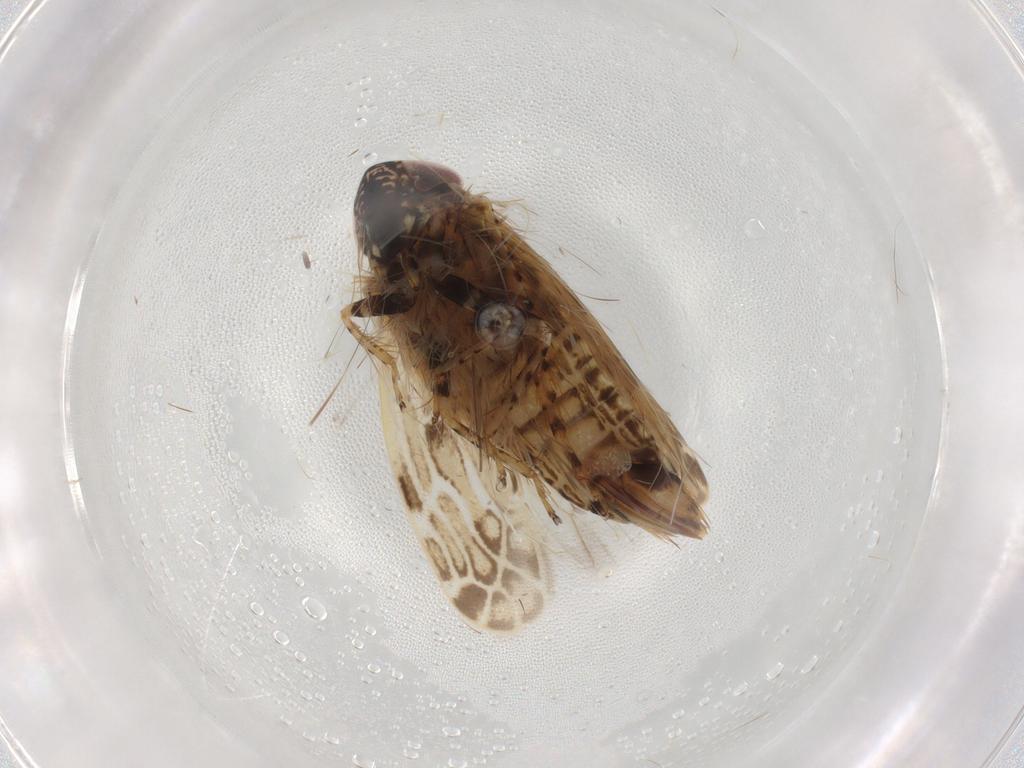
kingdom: Animalia
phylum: Arthropoda
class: Insecta
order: Hemiptera
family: Cicadellidae
